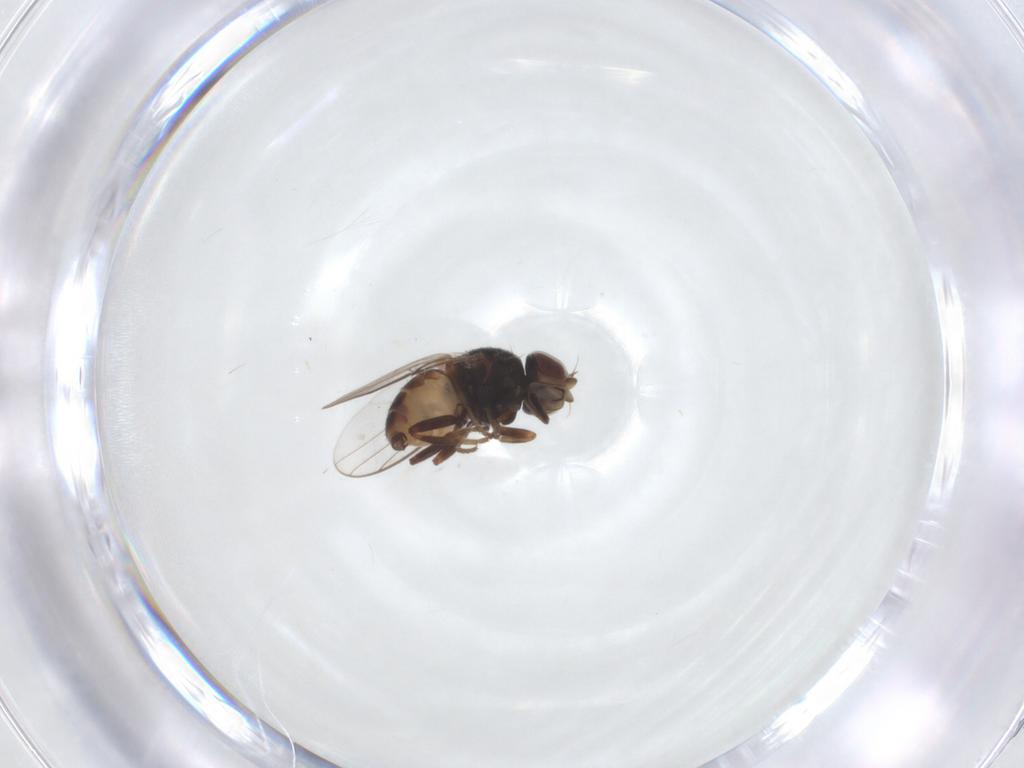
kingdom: Animalia
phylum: Arthropoda
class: Insecta
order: Diptera
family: Chloropidae
